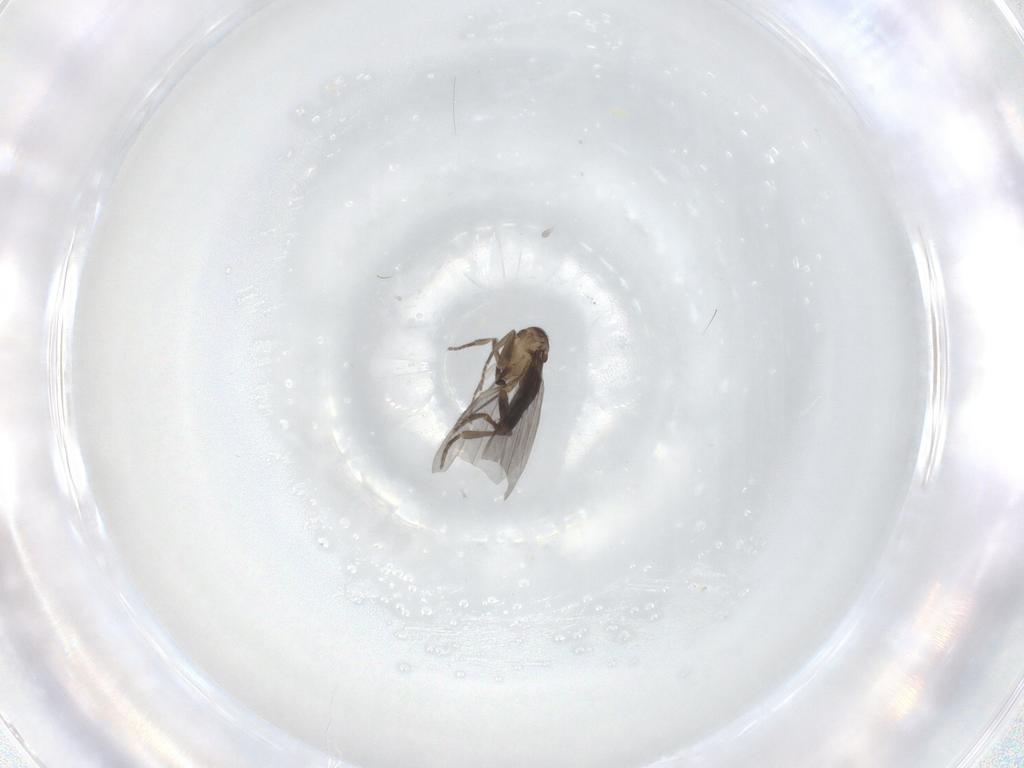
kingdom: Animalia
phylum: Arthropoda
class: Insecta
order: Diptera
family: Phoridae
